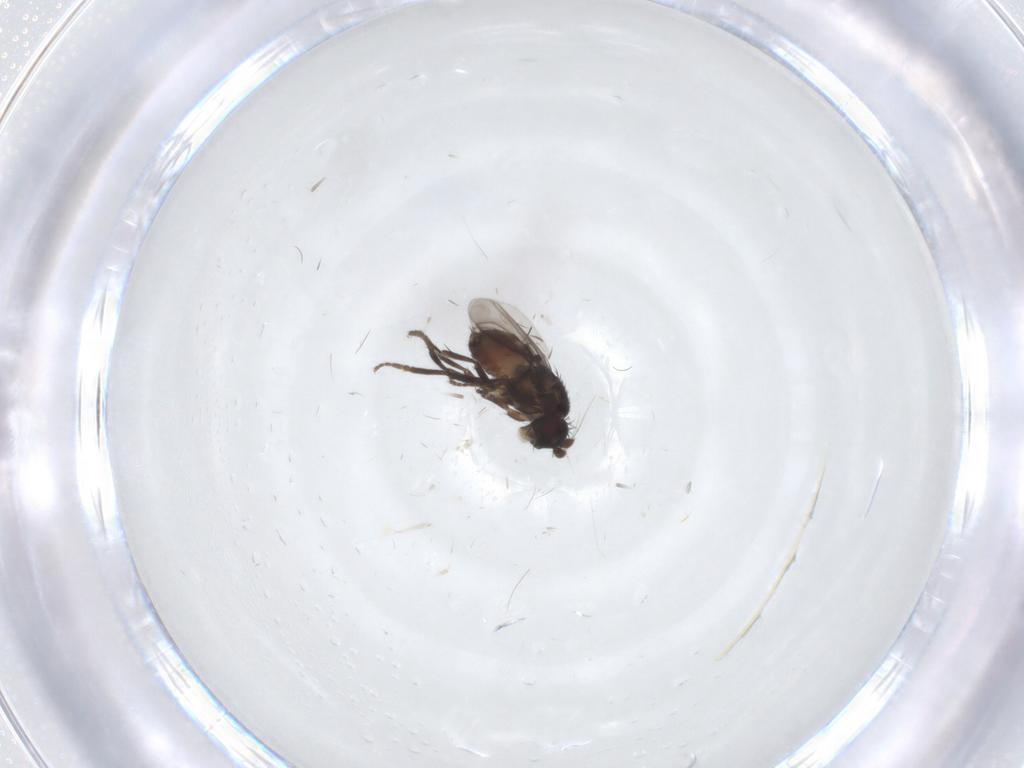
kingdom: Animalia
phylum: Arthropoda
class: Insecta
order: Diptera
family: Sphaeroceridae
